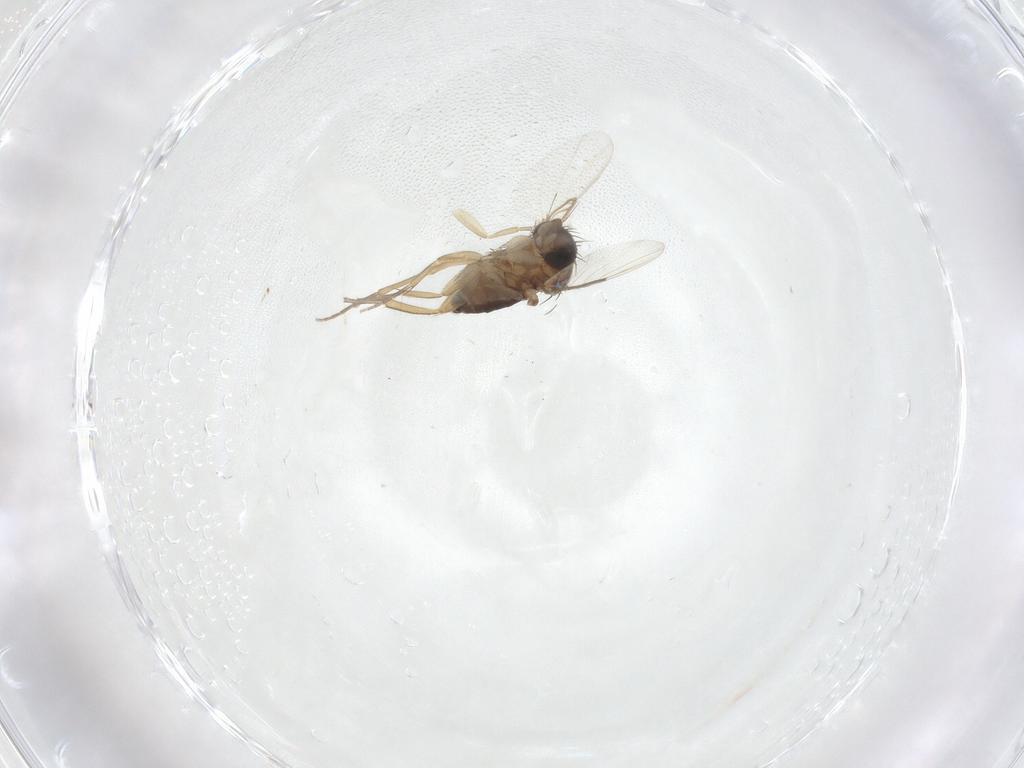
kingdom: Animalia
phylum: Arthropoda
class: Insecta
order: Diptera
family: Phoridae
